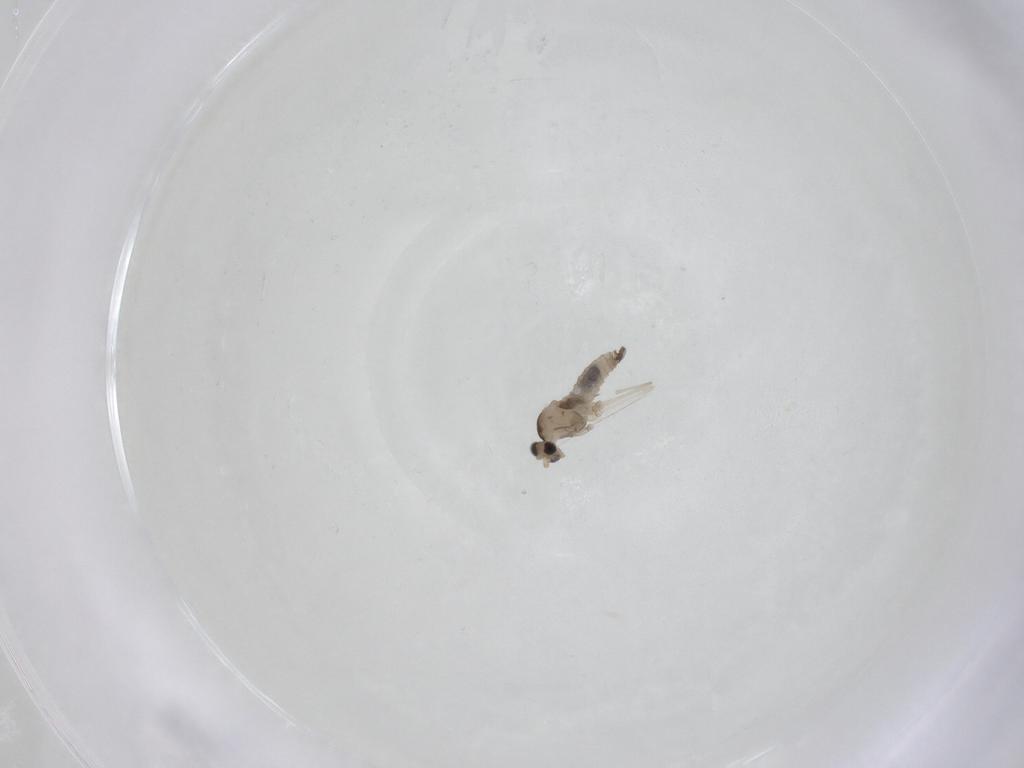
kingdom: Animalia
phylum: Arthropoda
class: Insecta
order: Diptera
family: Cecidomyiidae
